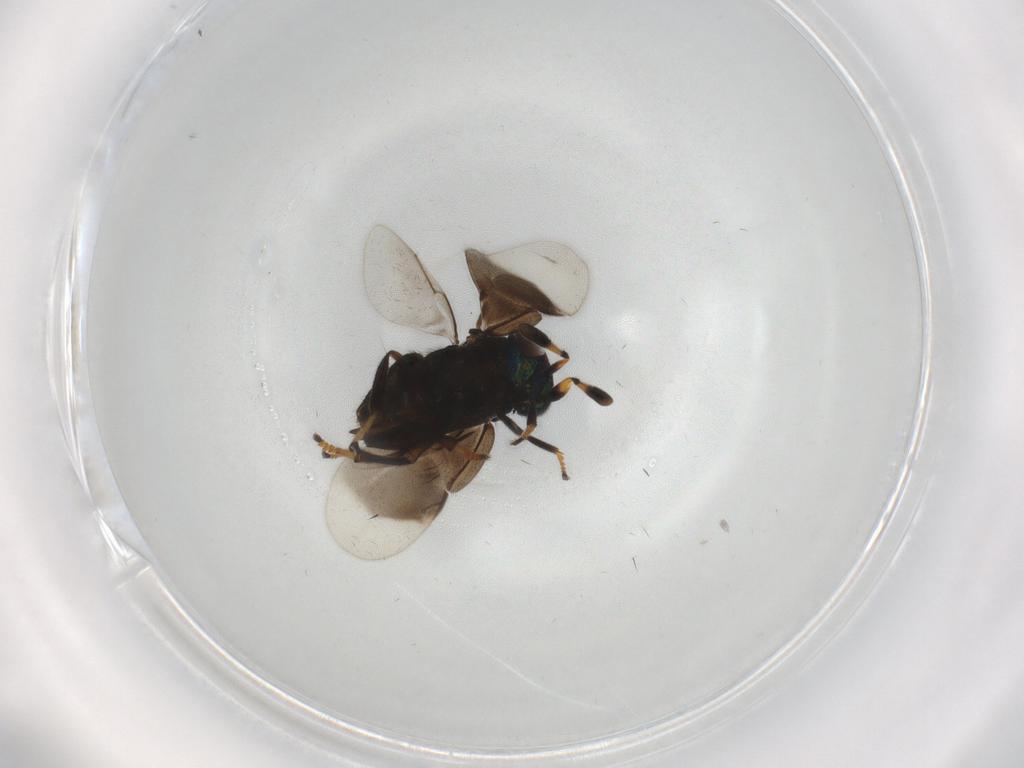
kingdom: Animalia
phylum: Arthropoda
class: Insecta
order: Hymenoptera
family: Encyrtidae
